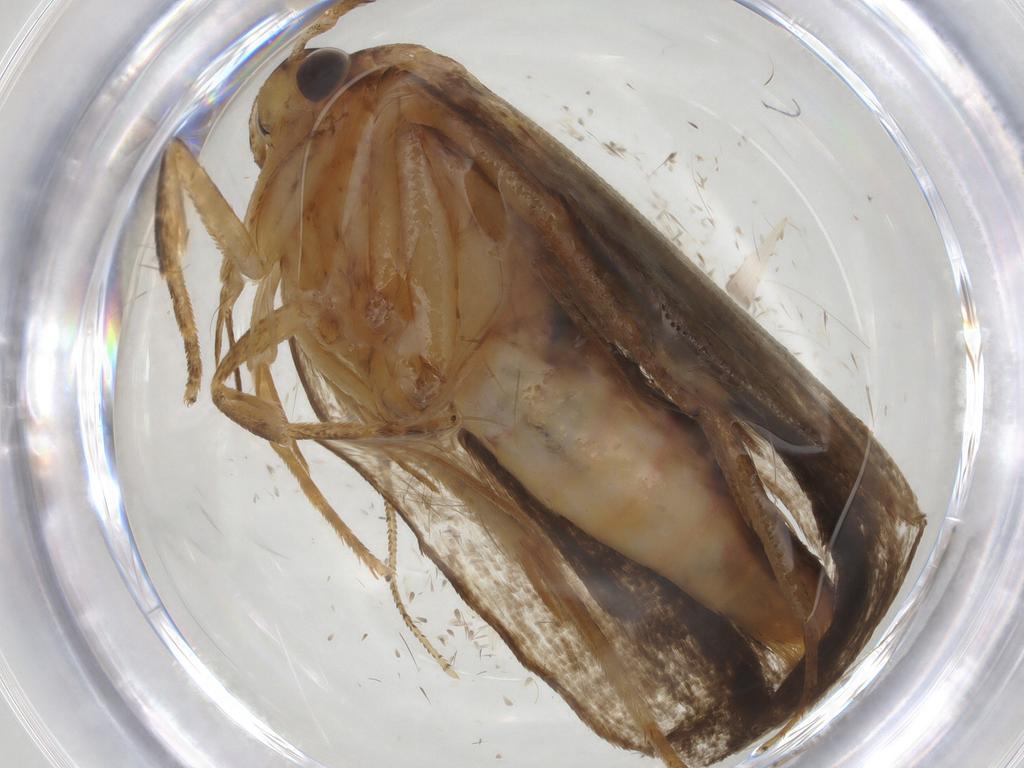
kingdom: Animalia
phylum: Arthropoda
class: Insecta
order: Lepidoptera
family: Autostichidae
